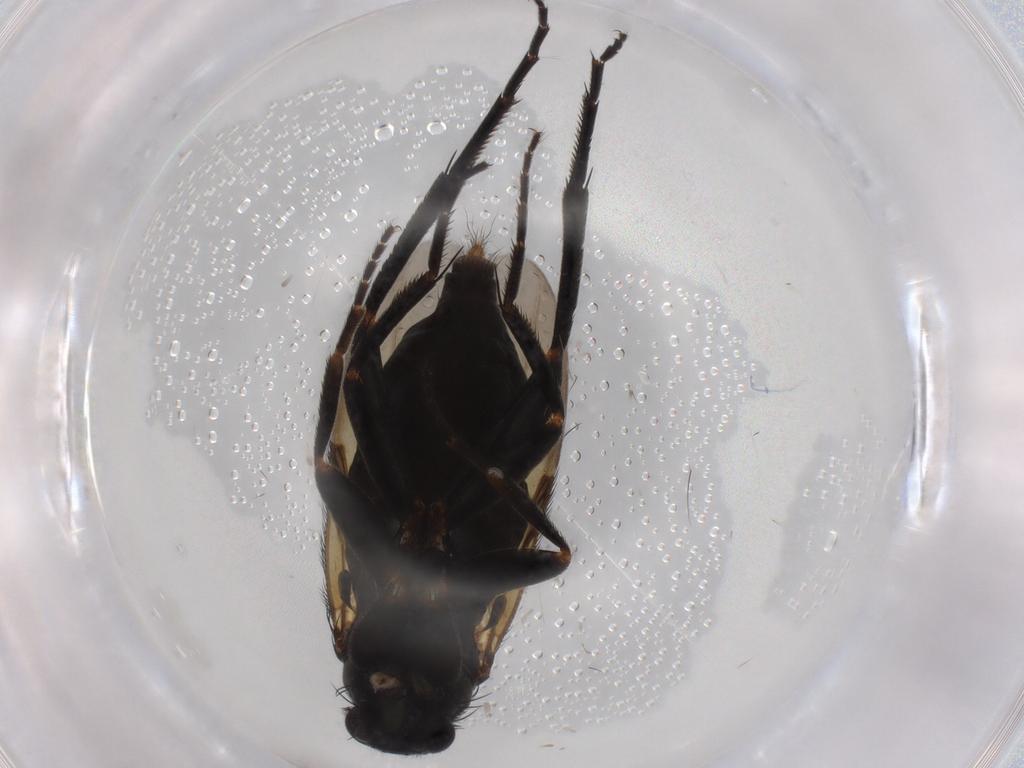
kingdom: Animalia
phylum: Arthropoda
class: Insecta
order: Diptera
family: Phoridae
